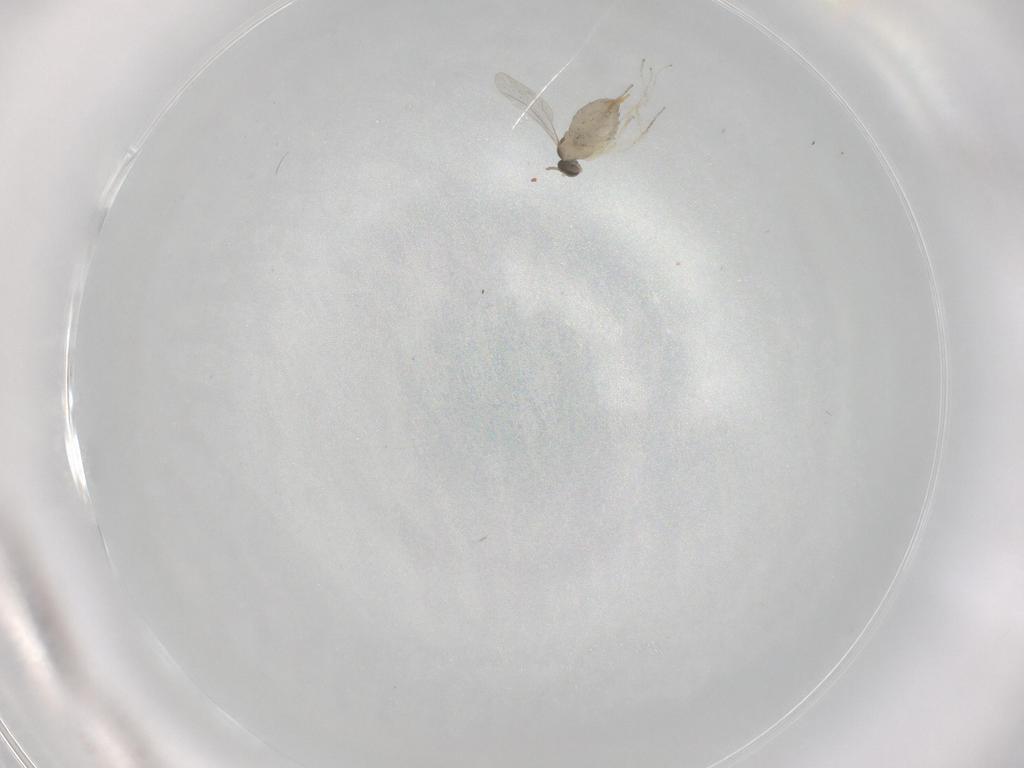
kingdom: Animalia
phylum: Arthropoda
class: Insecta
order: Diptera
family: Cecidomyiidae
